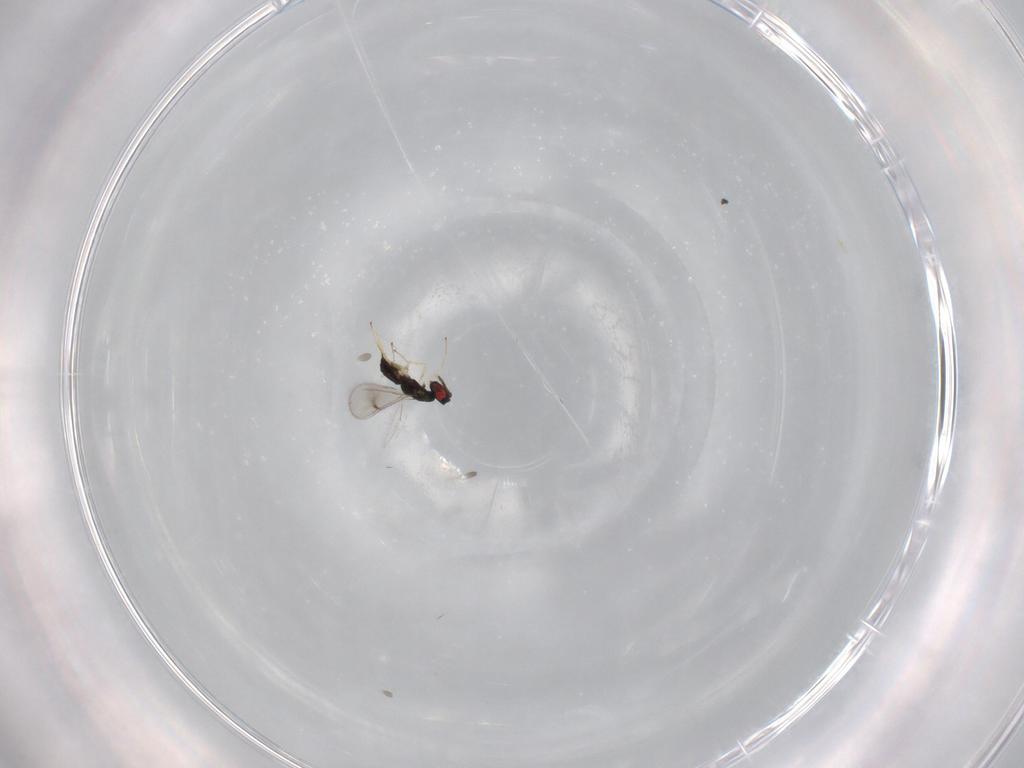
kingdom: Animalia
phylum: Arthropoda
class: Insecta
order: Hymenoptera
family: Eulophidae
